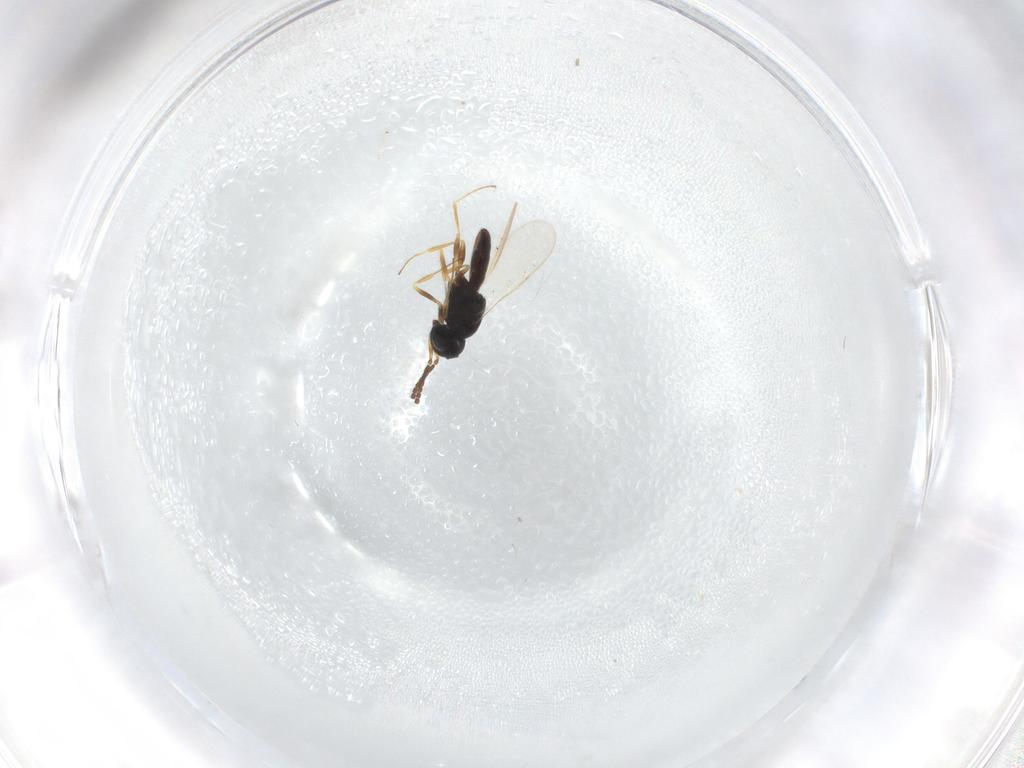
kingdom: Animalia
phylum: Arthropoda
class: Insecta
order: Hymenoptera
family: Scelionidae
